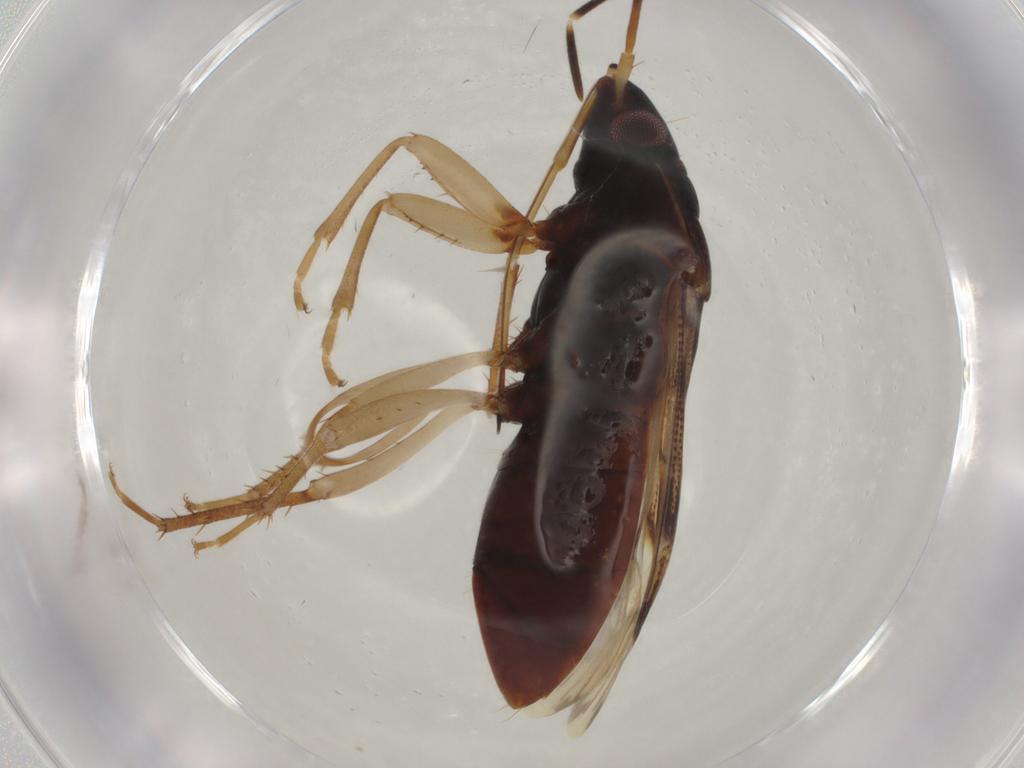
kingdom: Animalia
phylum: Arthropoda
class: Insecta
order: Hemiptera
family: Rhyparochromidae
